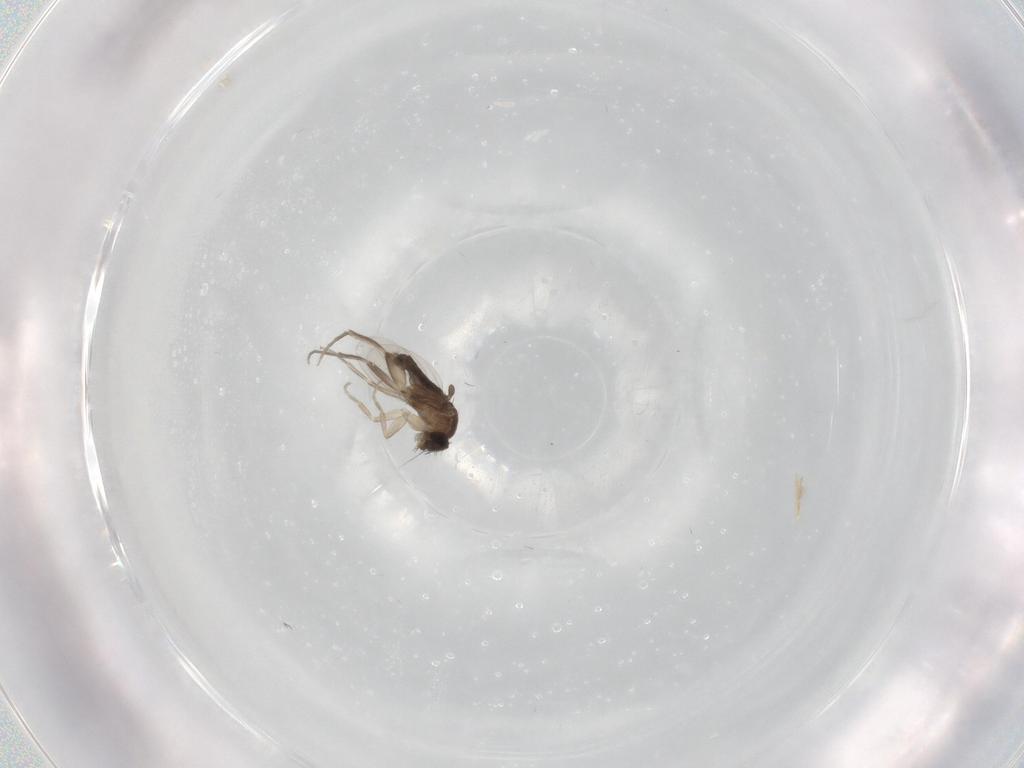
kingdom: Animalia
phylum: Arthropoda
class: Insecta
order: Diptera
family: Phoridae
